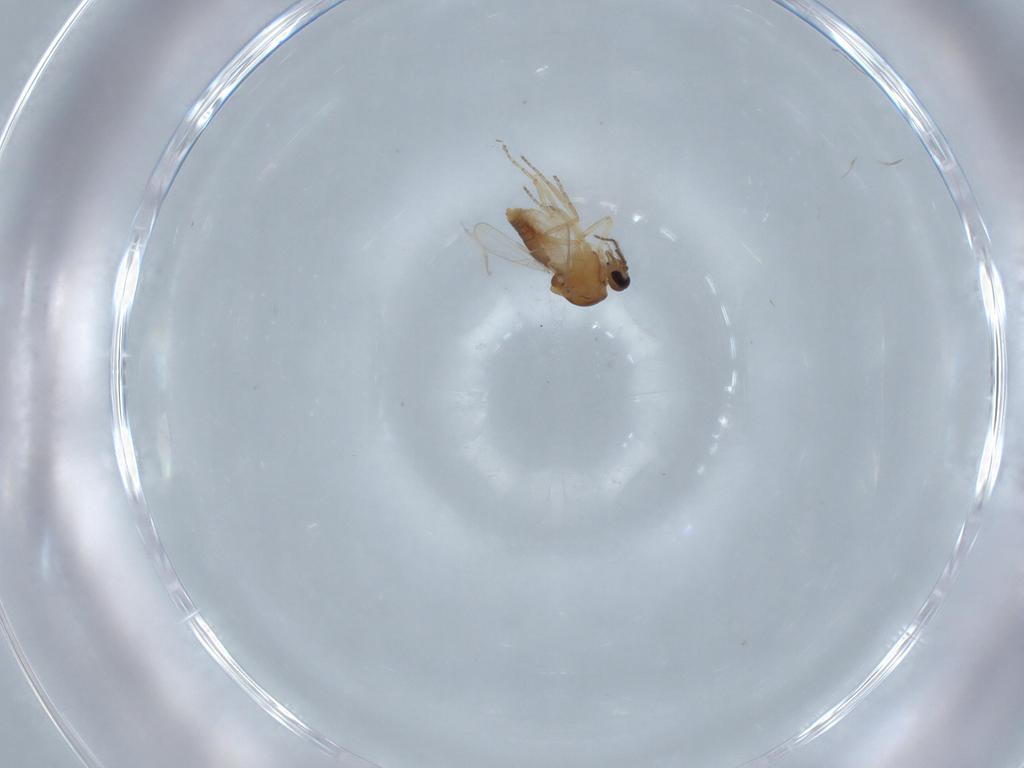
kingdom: Animalia
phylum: Arthropoda
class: Insecta
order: Diptera
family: Ceratopogonidae
